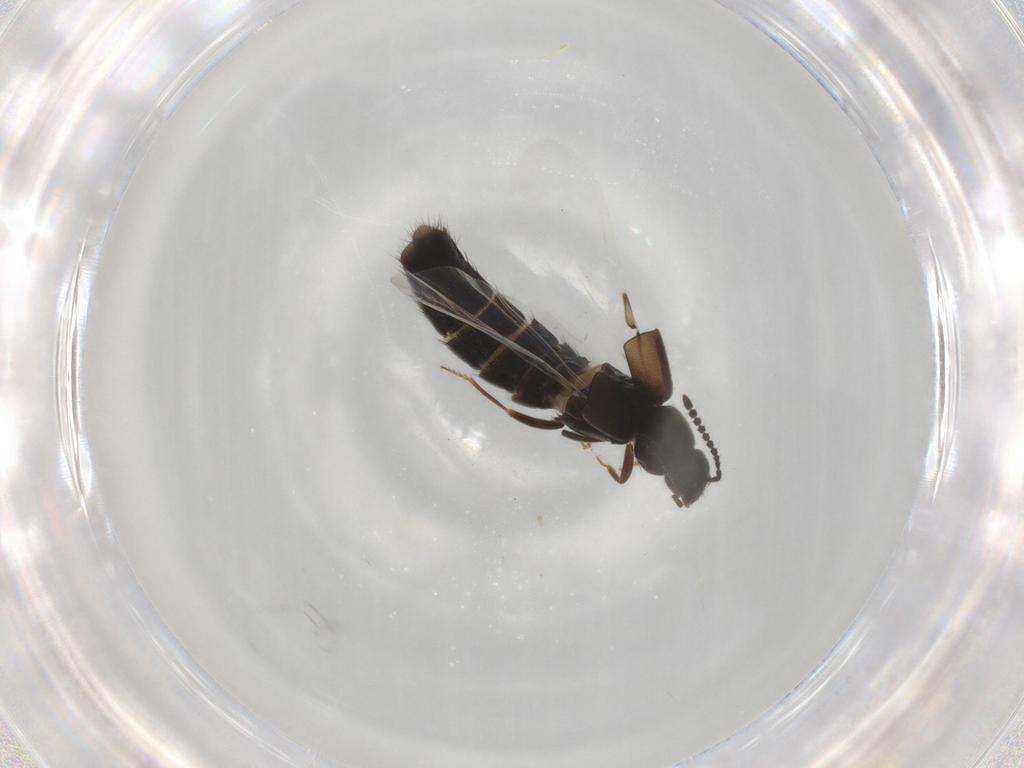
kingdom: Animalia
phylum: Arthropoda
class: Insecta
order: Coleoptera
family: Staphylinidae
